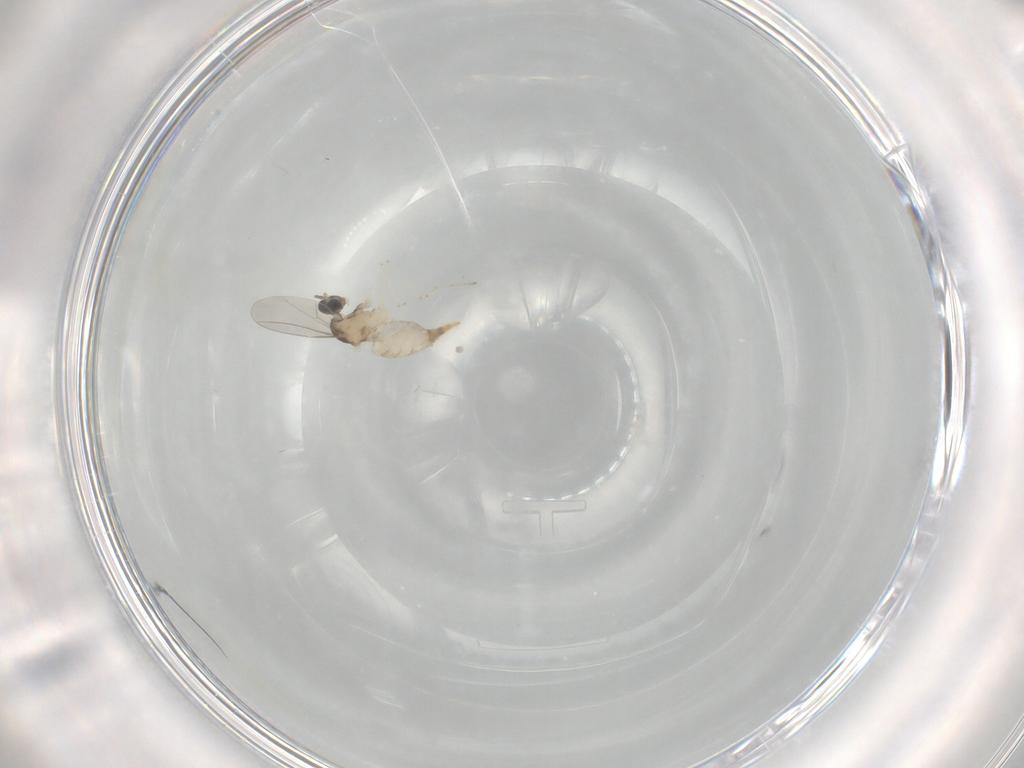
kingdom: Animalia
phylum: Arthropoda
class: Insecta
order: Diptera
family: Cecidomyiidae
